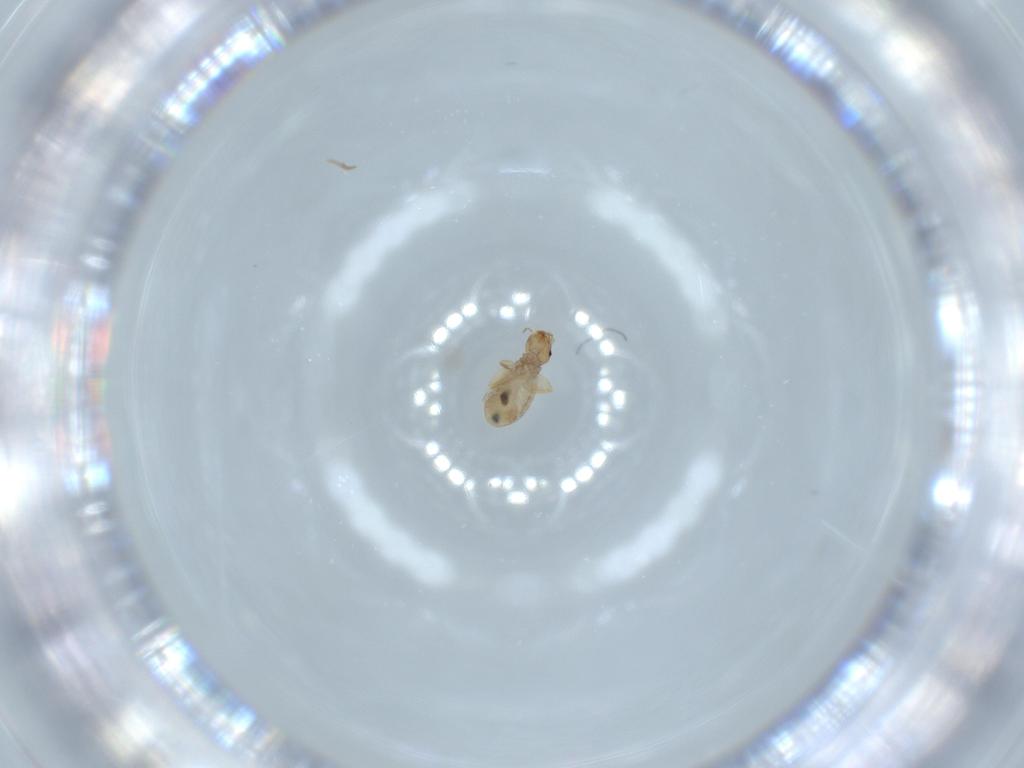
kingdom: Animalia
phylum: Arthropoda
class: Insecta
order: Psocodea
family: Liposcelididae
